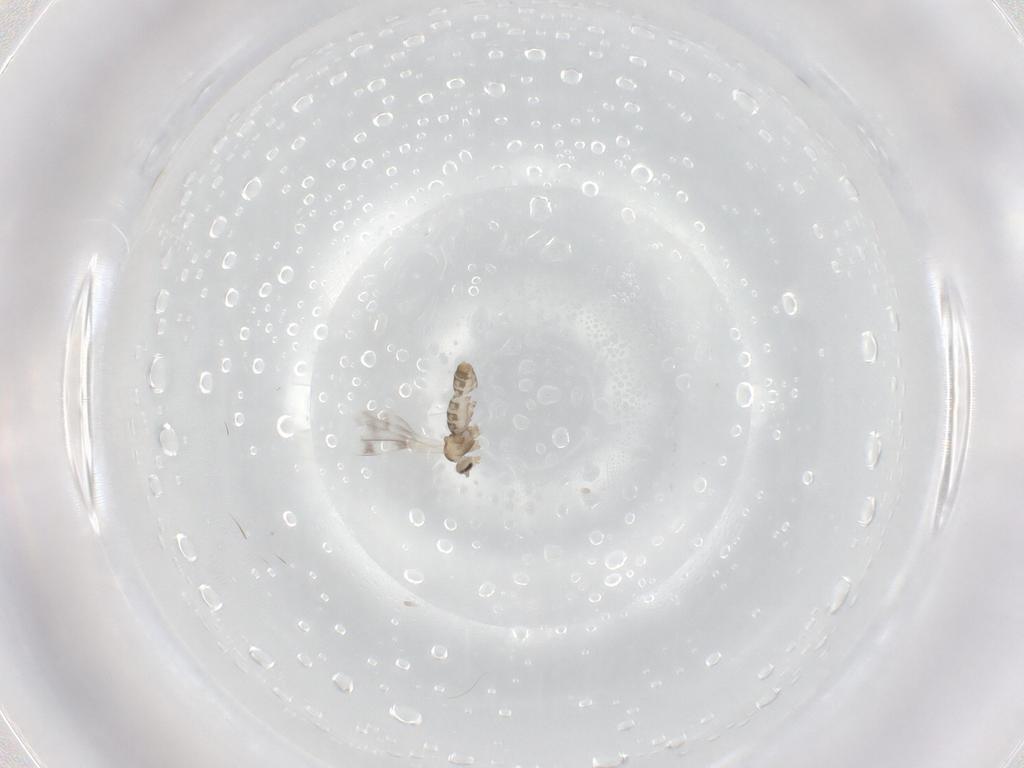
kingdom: Animalia
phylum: Arthropoda
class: Insecta
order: Diptera
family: Cecidomyiidae
